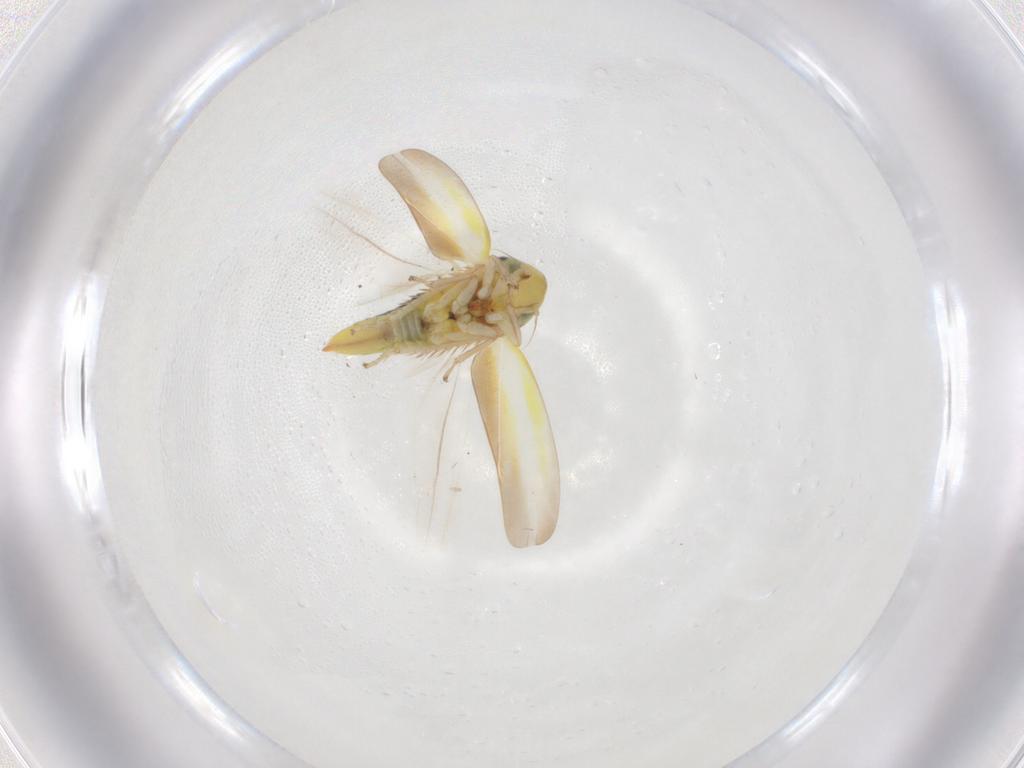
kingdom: Animalia
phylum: Arthropoda
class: Insecta
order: Hemiptera
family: Cicadellidae
